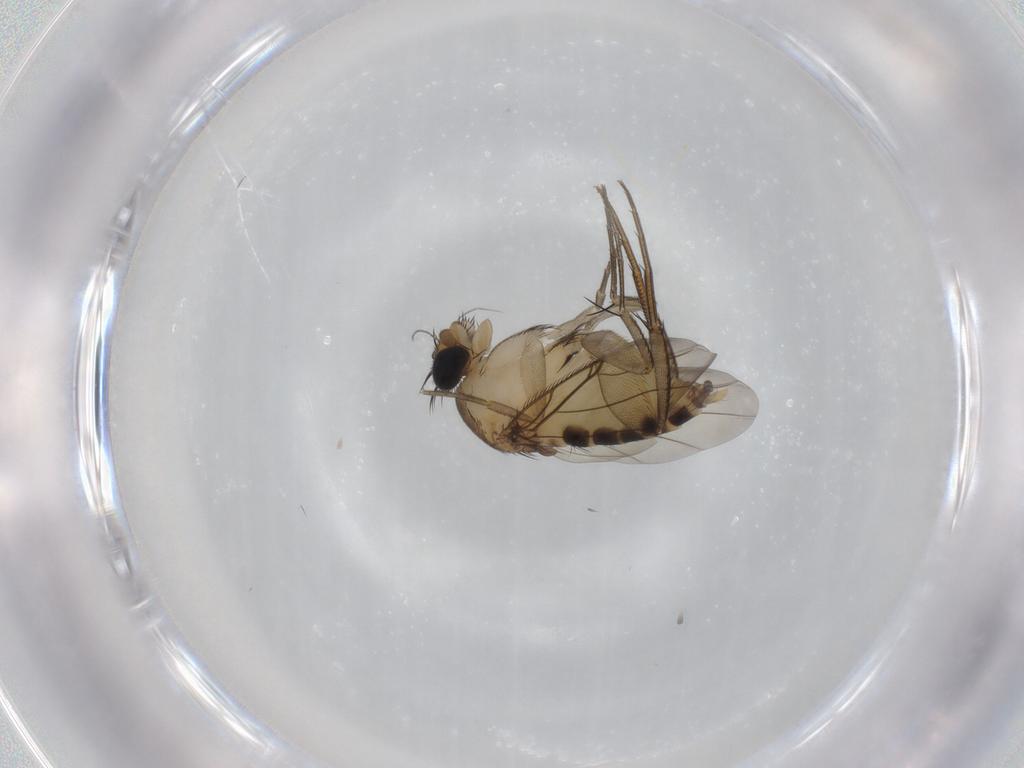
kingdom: Animalia
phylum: Arthropoda
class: Insecta
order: Diptera
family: Phoridae
